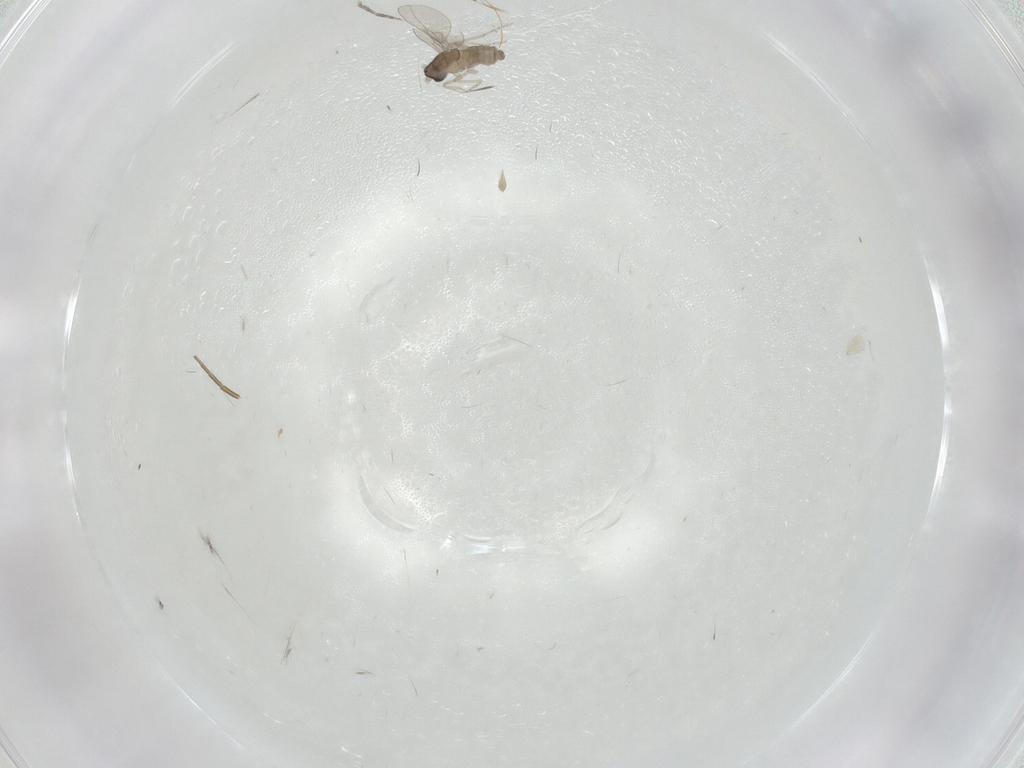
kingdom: Animalia
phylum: Arthropoda
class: Insecta
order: Diptera
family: Cecidomyiidae
